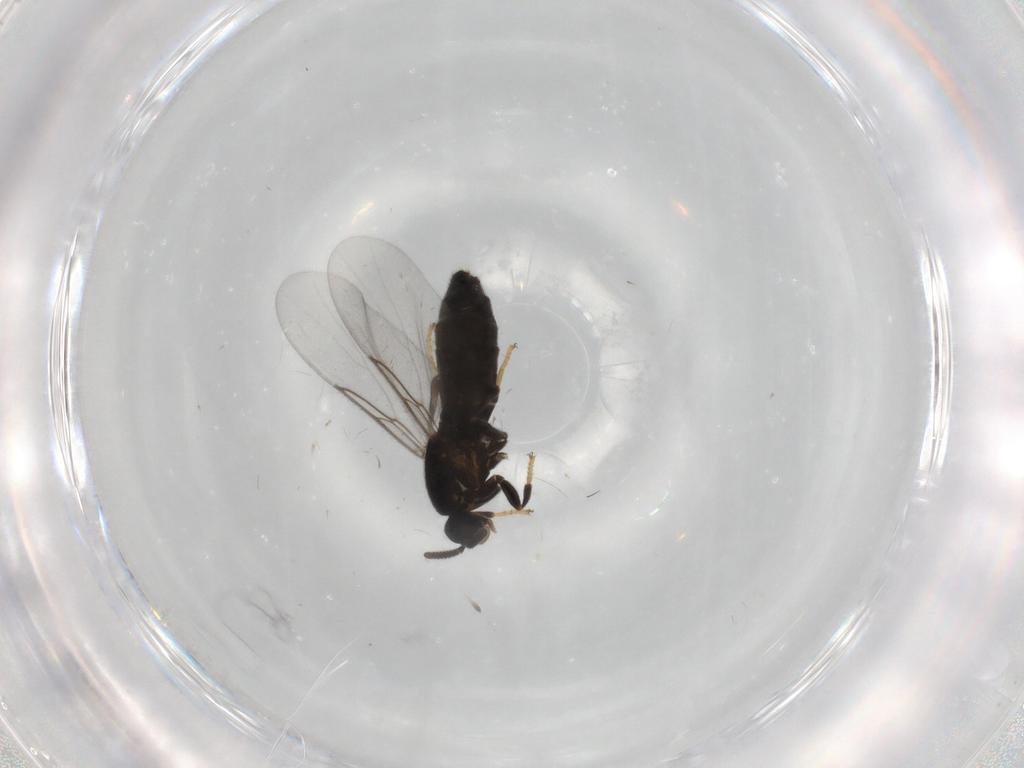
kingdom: Animalia
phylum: Arthropoda
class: Insecta
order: Diptera
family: Scatopsidae
